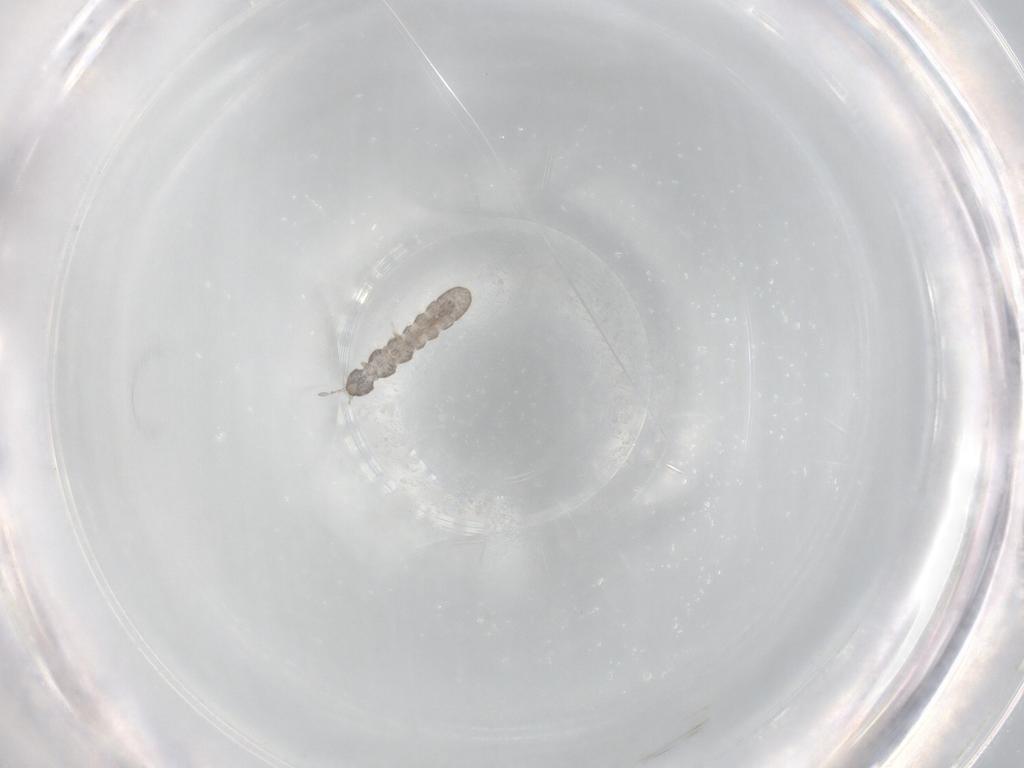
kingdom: Animalia
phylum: Arthropoda
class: Collembola
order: Entomobryomorpha
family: Isotomidae
